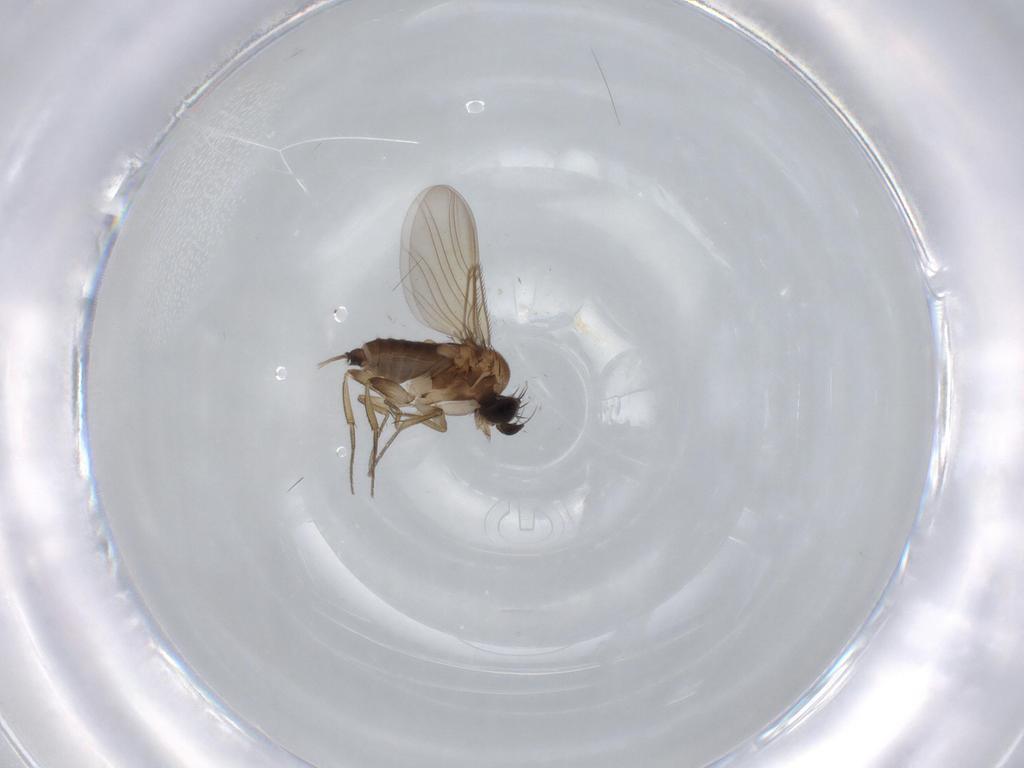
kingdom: Animalia
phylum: Arthropoda
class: Insecta
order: Diptera
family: Phoridae
